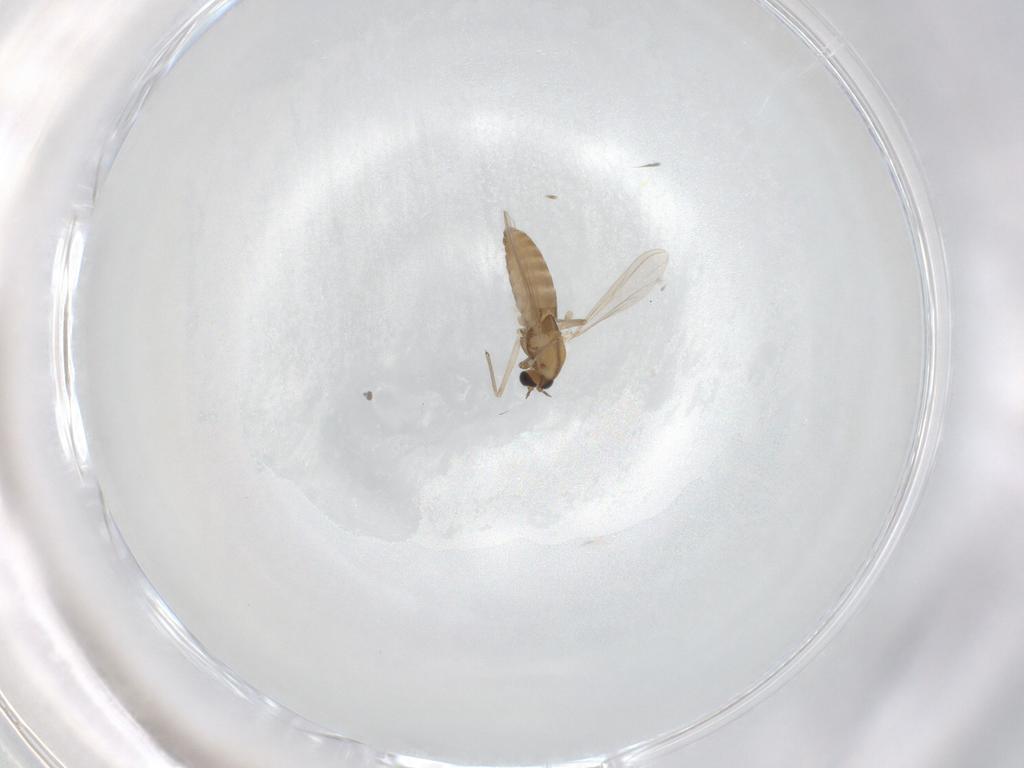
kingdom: Animalia
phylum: Arthropoda
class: Insecta
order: Diptera
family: Chironomidae
